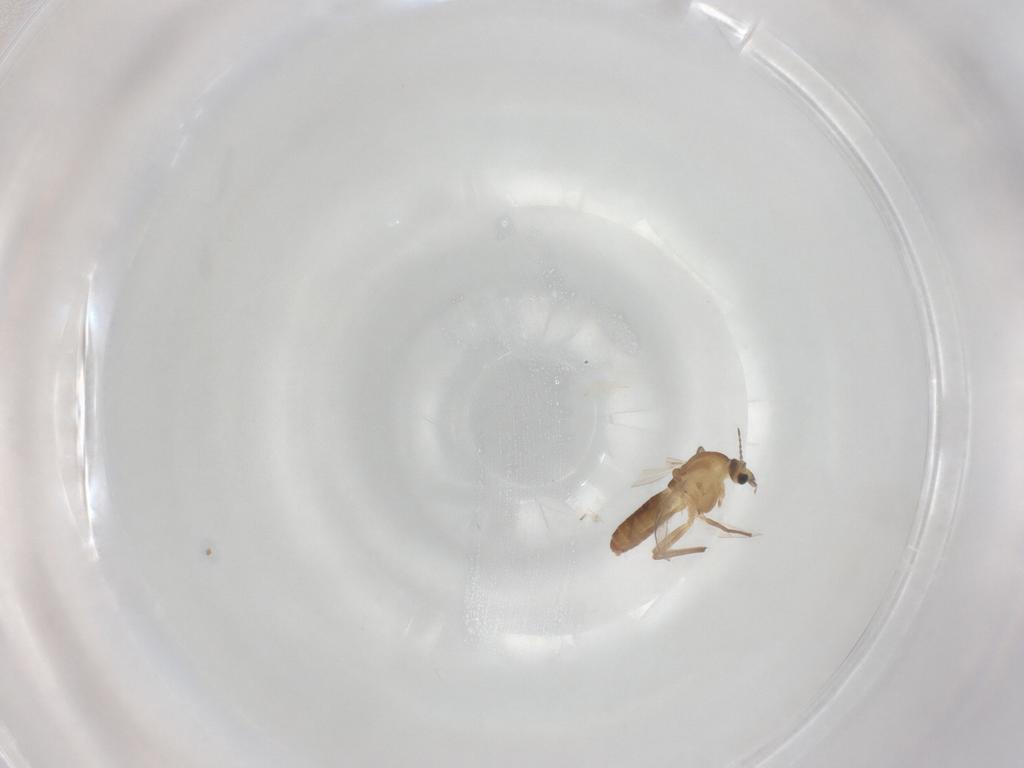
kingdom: Animalia
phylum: Arthropoda
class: Insecta
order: Diptera
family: Chironomidae
